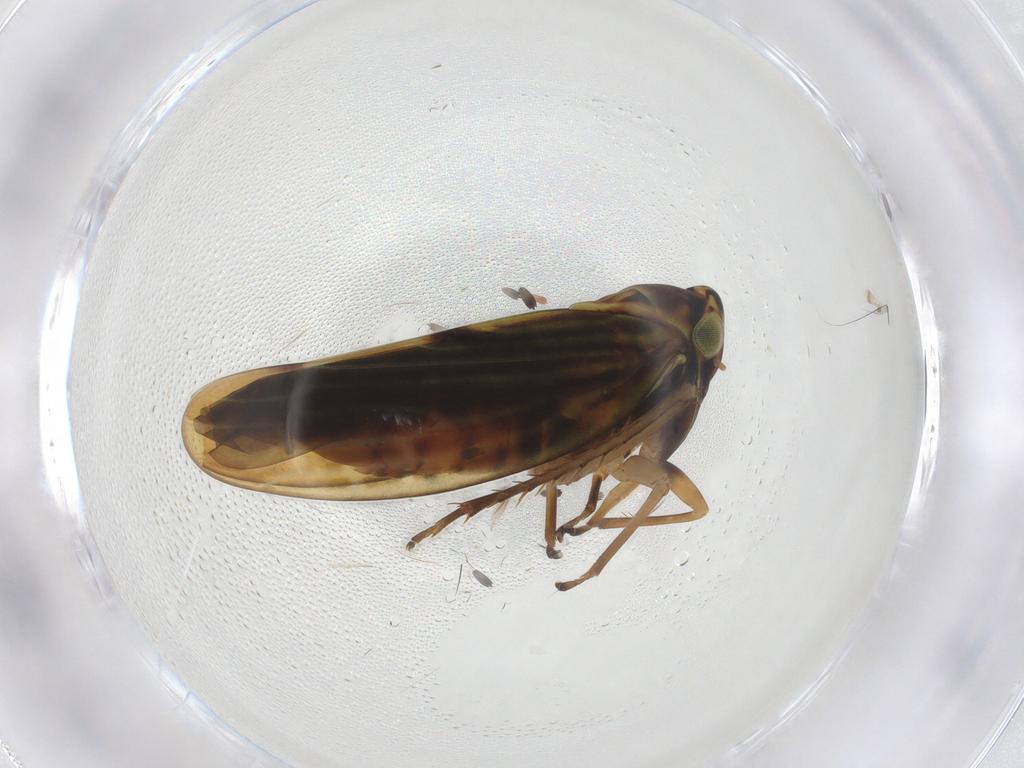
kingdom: Animalia
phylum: Arthropoda
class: Insecta
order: Hemiptera
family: Cicadellidae
